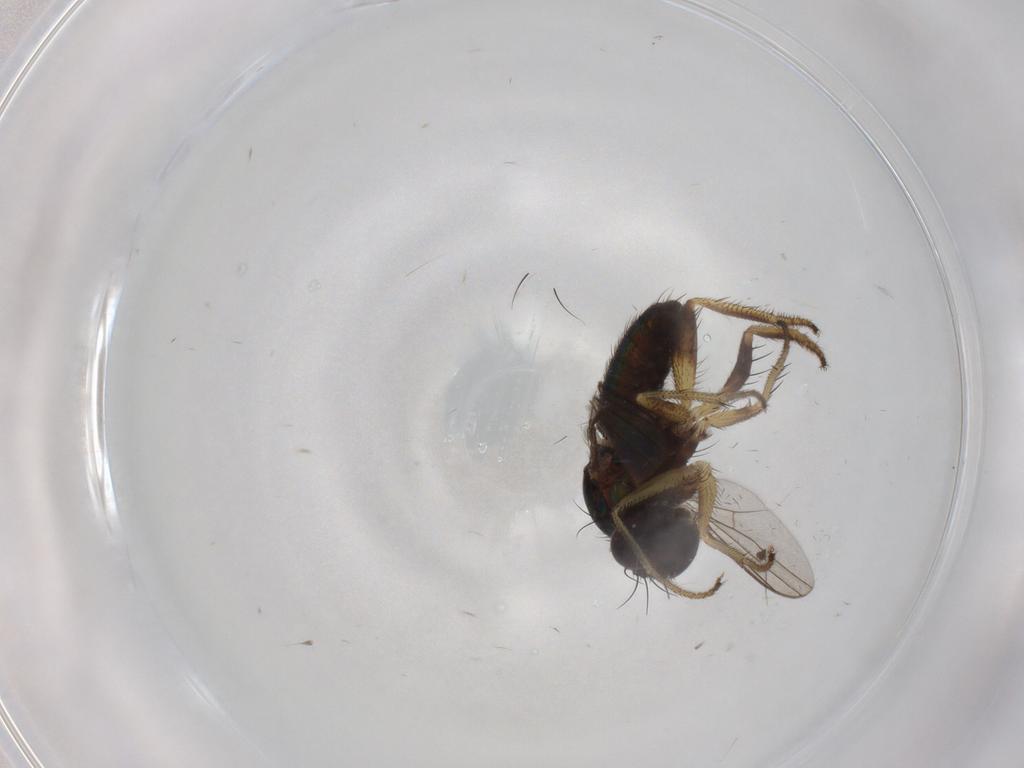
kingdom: Animalia
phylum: Arthropoda
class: Insecta
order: Diptera
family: Dolichopodidae
